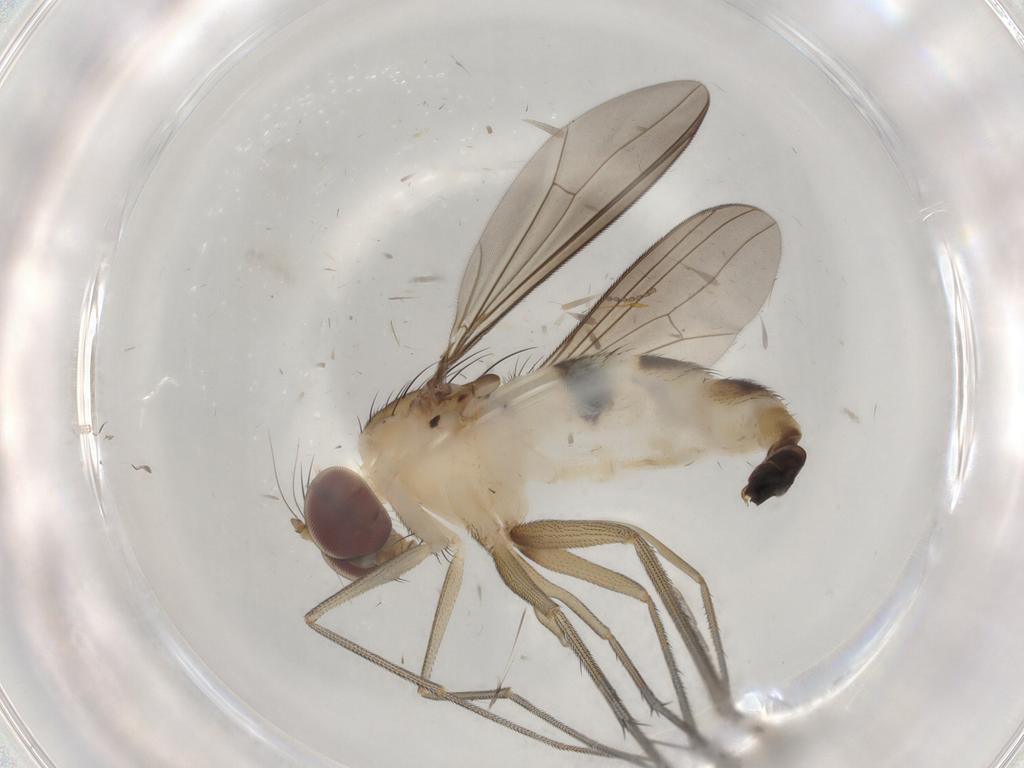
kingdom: Animalia
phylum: Arthropoda
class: Insecta
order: Diptera
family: Dolichopodidae
